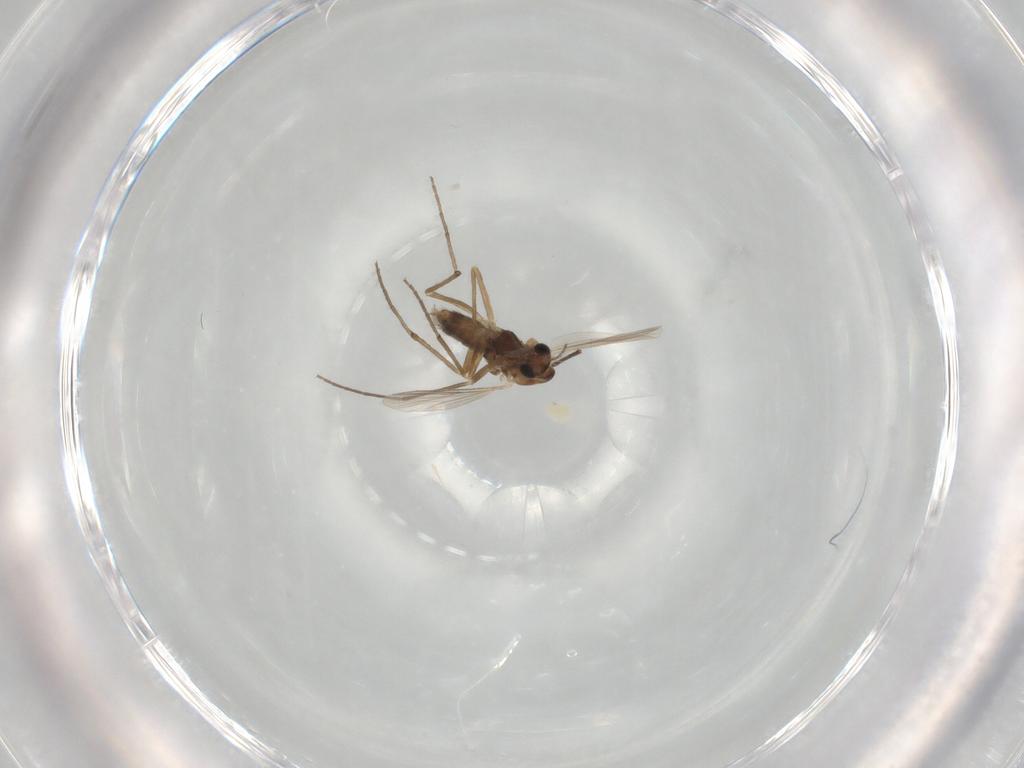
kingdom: Animalia
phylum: Arthropoda
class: Insecta
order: Diptera
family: Chironomidae
